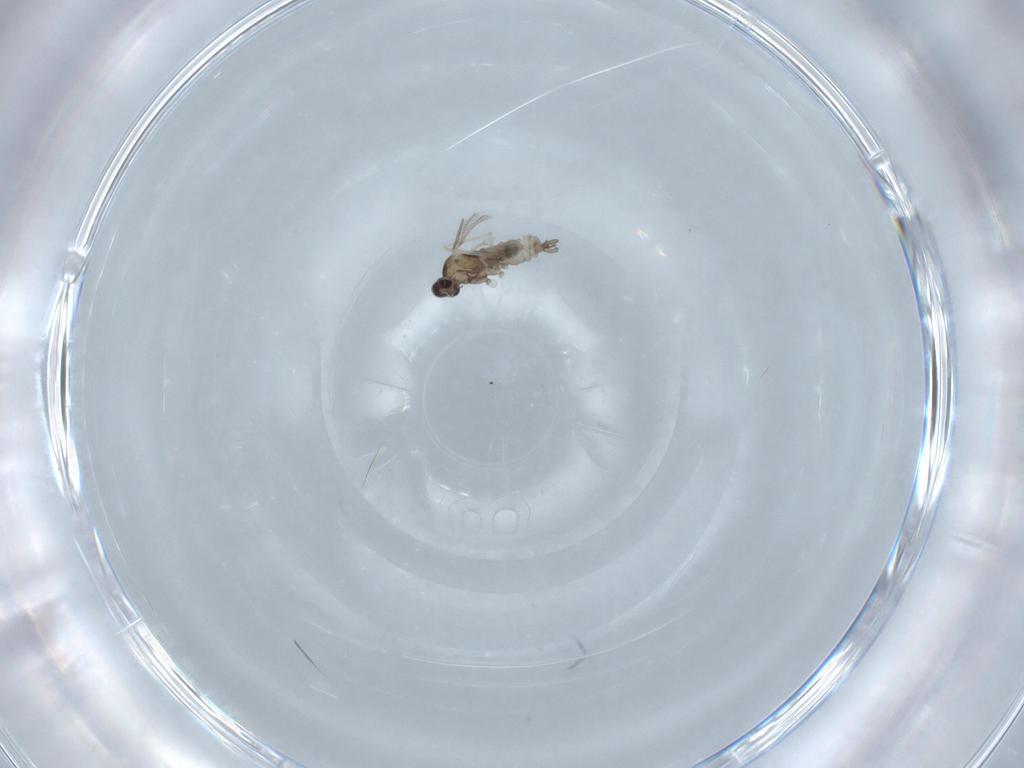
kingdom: Animalia
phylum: Arthropoda
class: Insecta
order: Diptera
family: Cecidomyiidae
